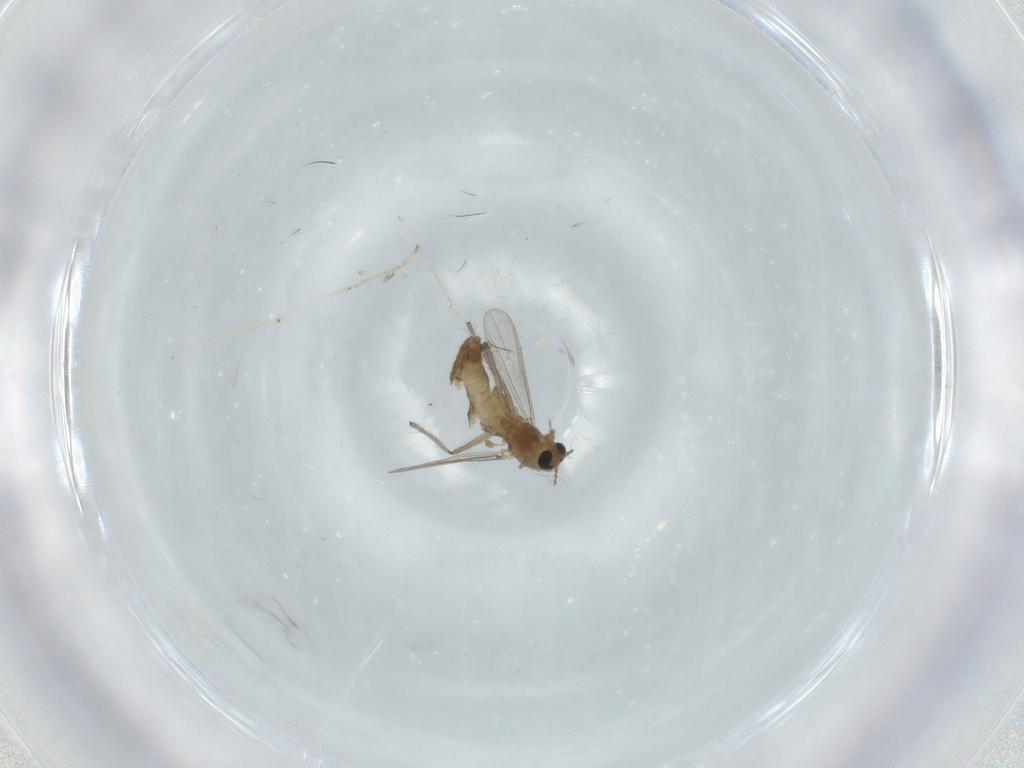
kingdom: Animalia
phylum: Arthropoda
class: Insecta
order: Diptera
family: Chironomidae
